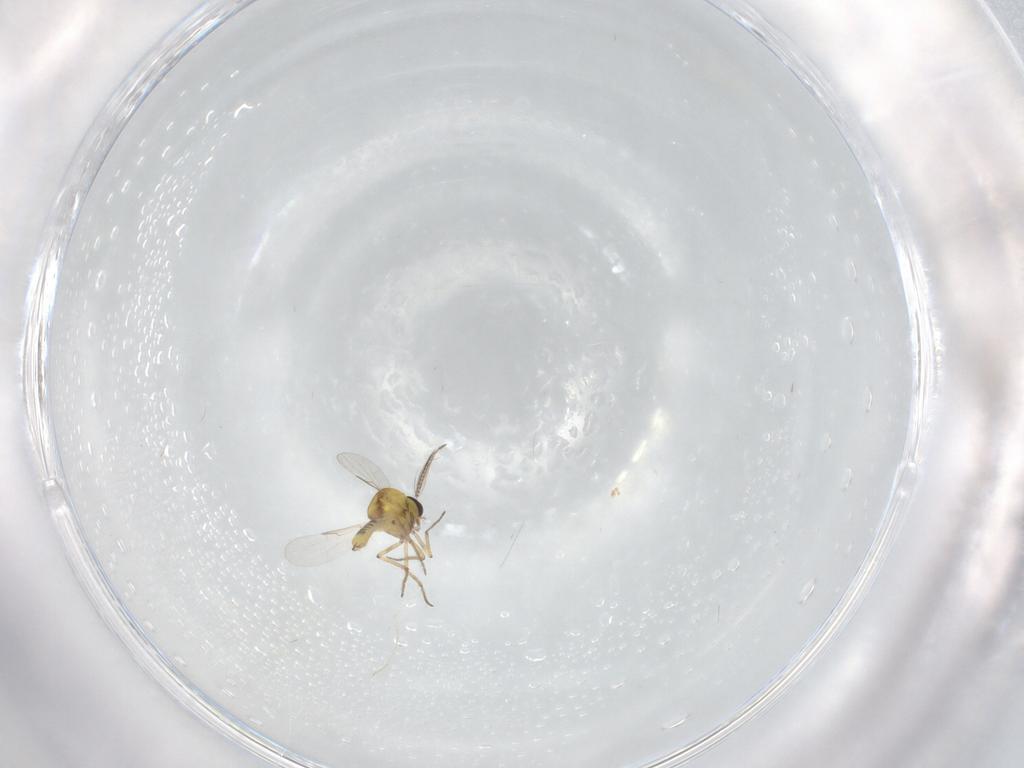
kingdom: Animalia
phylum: Arthropoda
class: Insecta
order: Diptera
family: Ceratopogonidae
